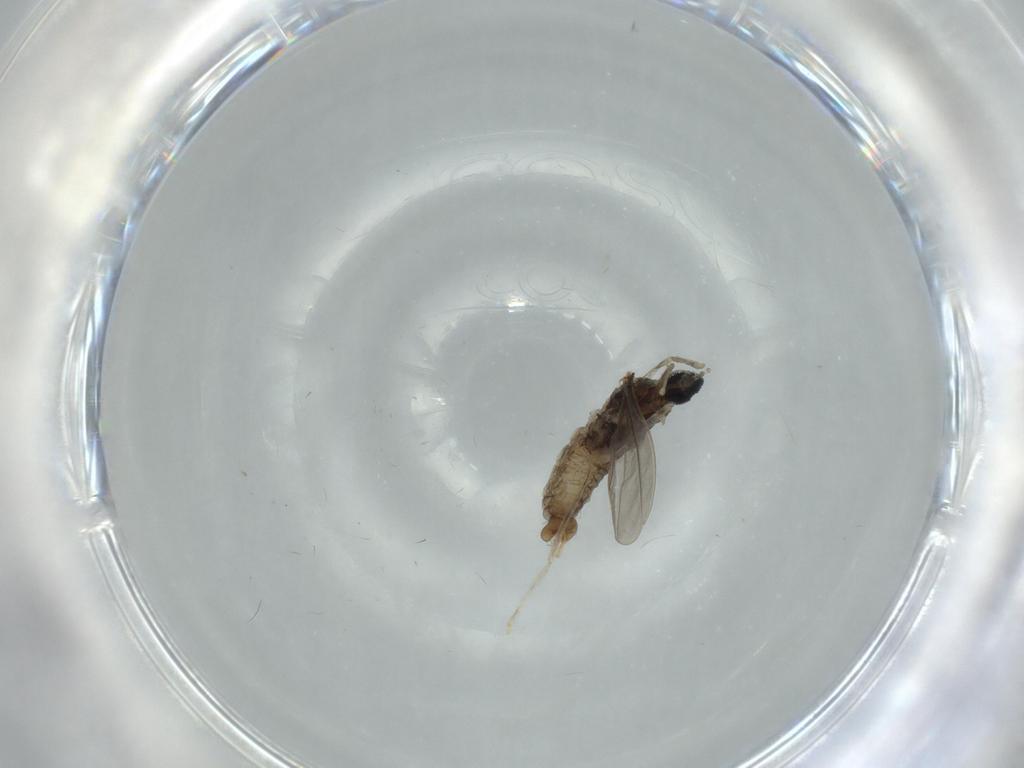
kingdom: Animalia
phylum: Arthropoda
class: Insecta
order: Diptera
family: Cecidomyiidae
